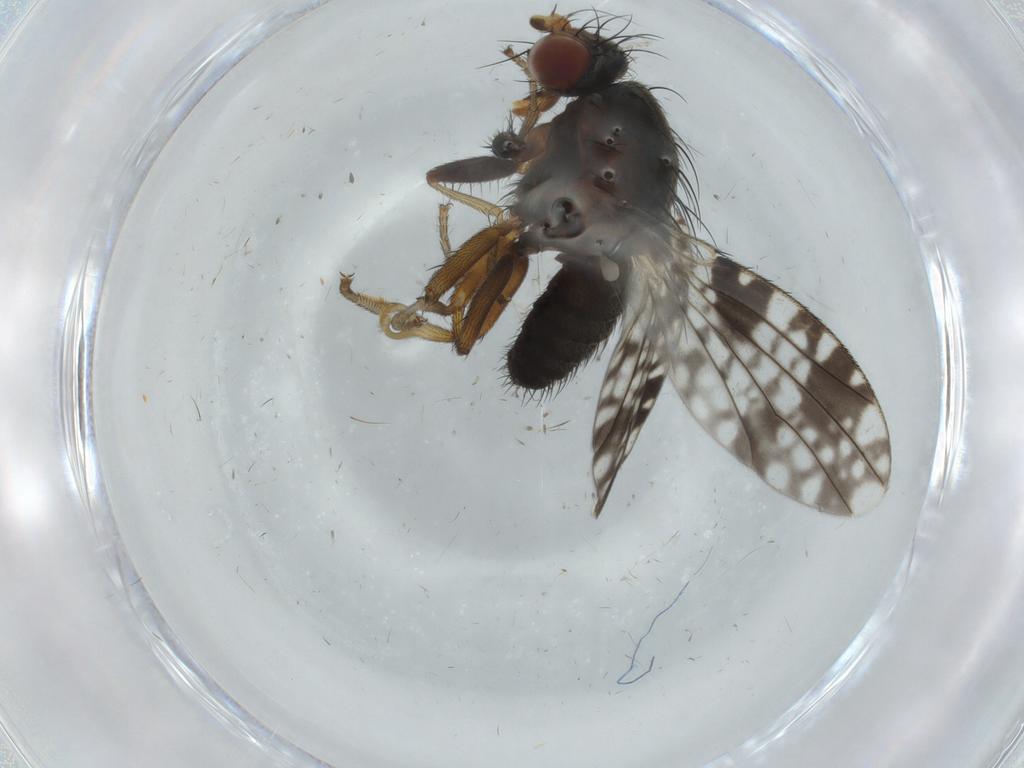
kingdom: Animalia
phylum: Arthropoda
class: Insecta
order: Diptera
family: Tephritidae
